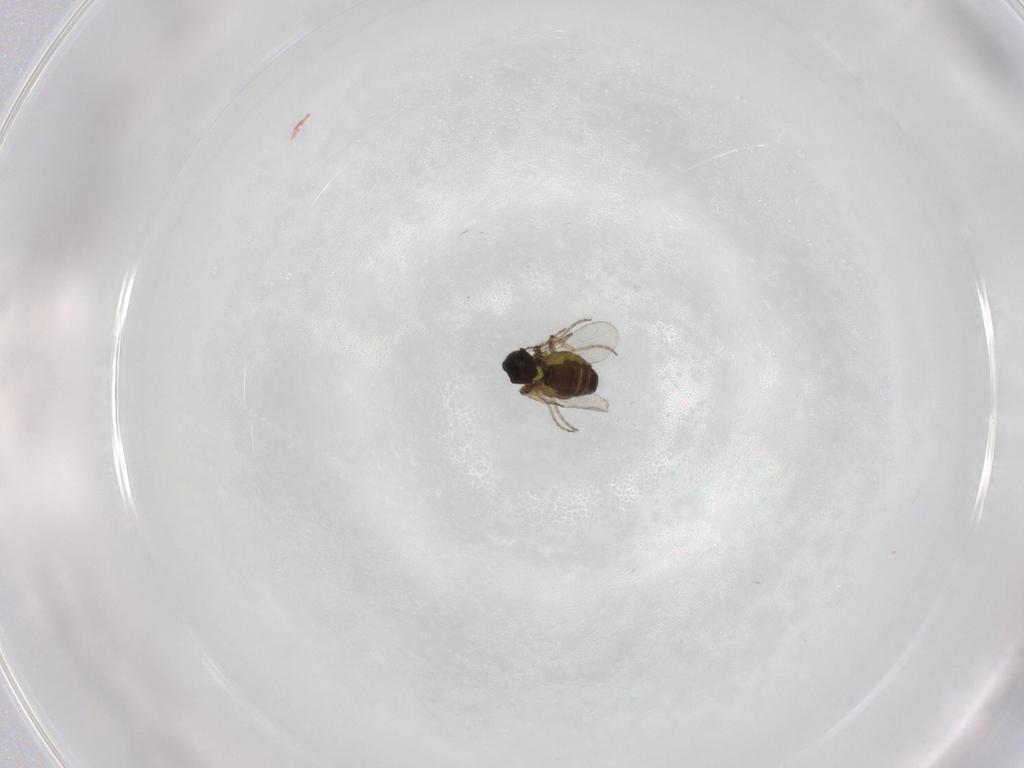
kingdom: Animalia
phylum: Arthropoda
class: Insecta
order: Diptera
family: Ceratopogonidae
